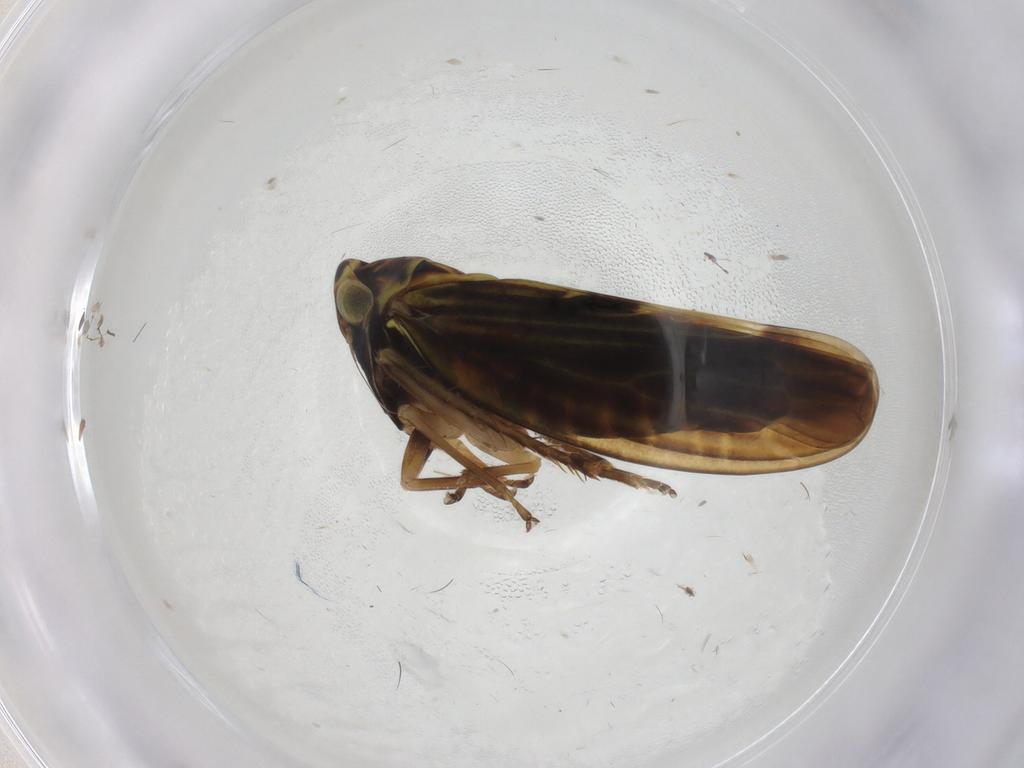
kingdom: Animalia
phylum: Arthropoda
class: Insecta
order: Hemiptera
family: Cicadellidae
